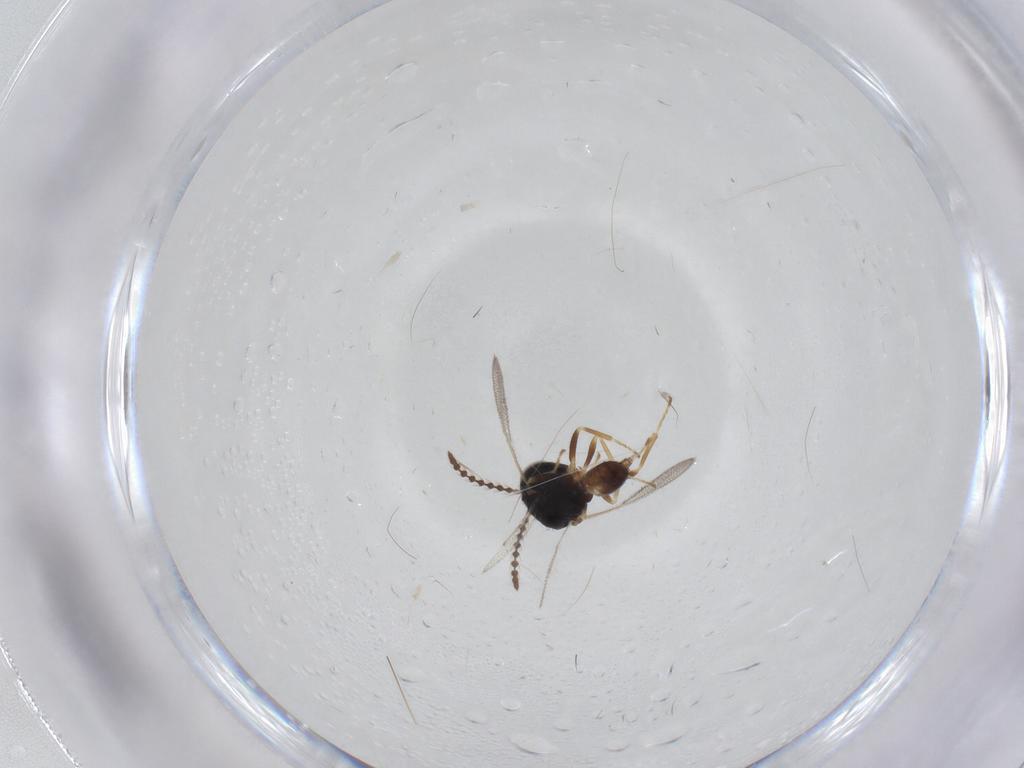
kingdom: Animalia
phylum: Arthropoda
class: Insecta
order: Hymenoptera
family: Pteromalidae
